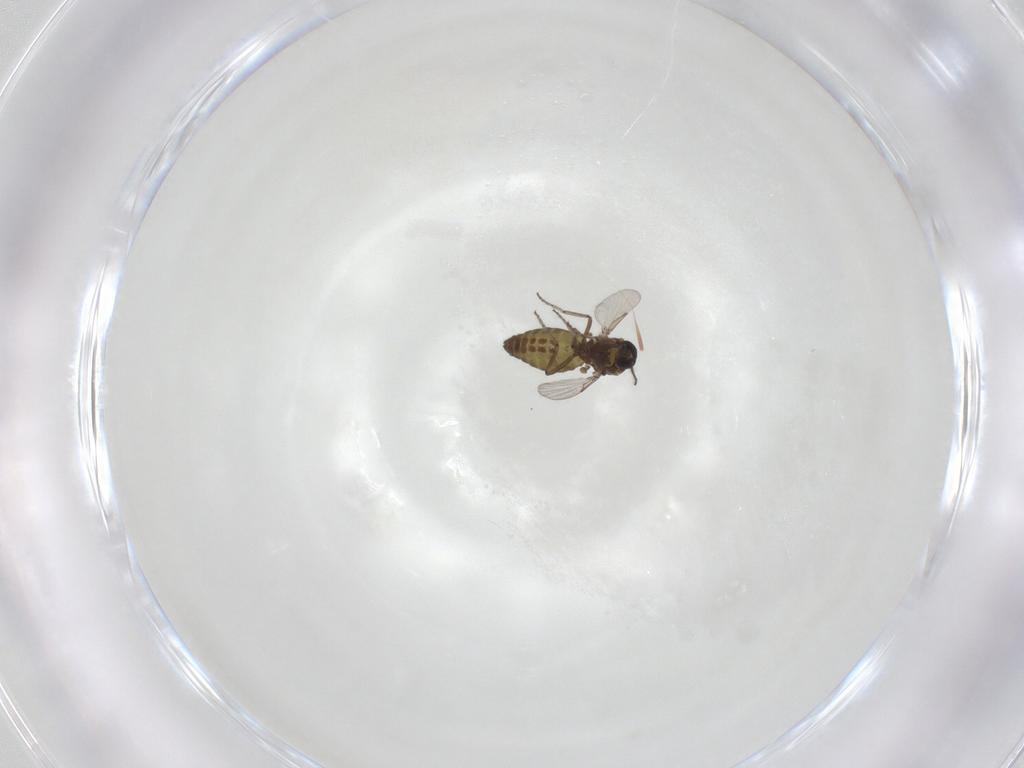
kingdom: Animalia
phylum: Arthropoda
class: Insecta
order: Diptera
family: Ceratopogonidae
